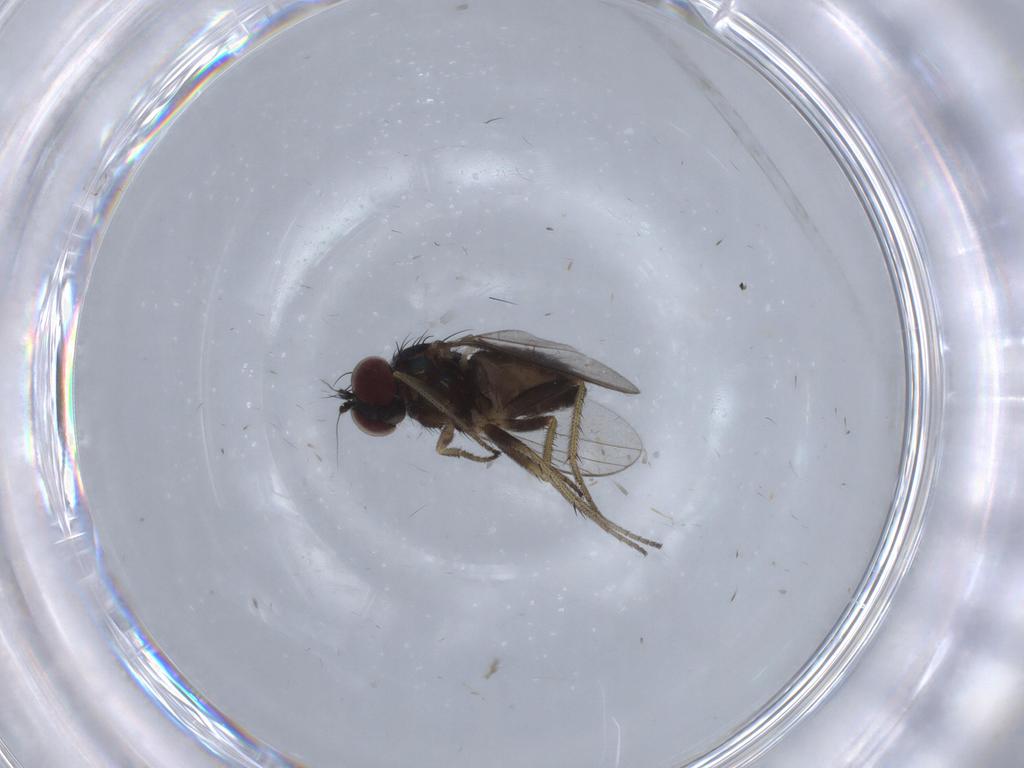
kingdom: Animalia
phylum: Arthropoda
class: Insecta
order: Diptera
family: Dolichopodidae
